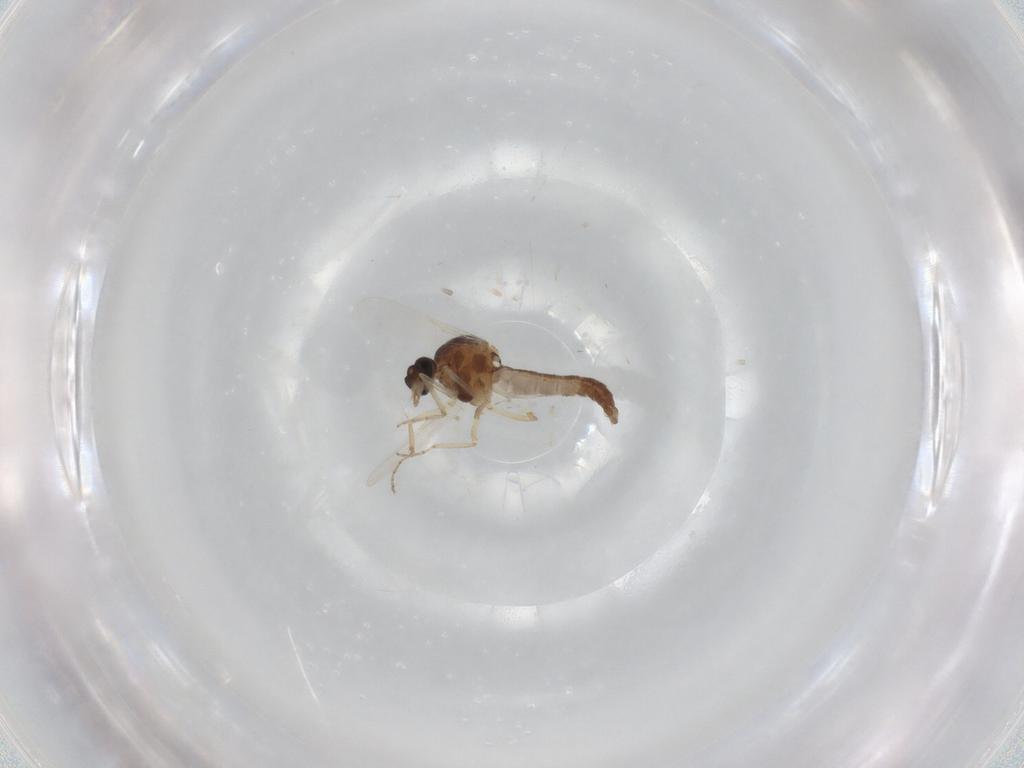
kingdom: Animalia
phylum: Arthropoda
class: Insecta
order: Diptera
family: Ceratopogonidae
